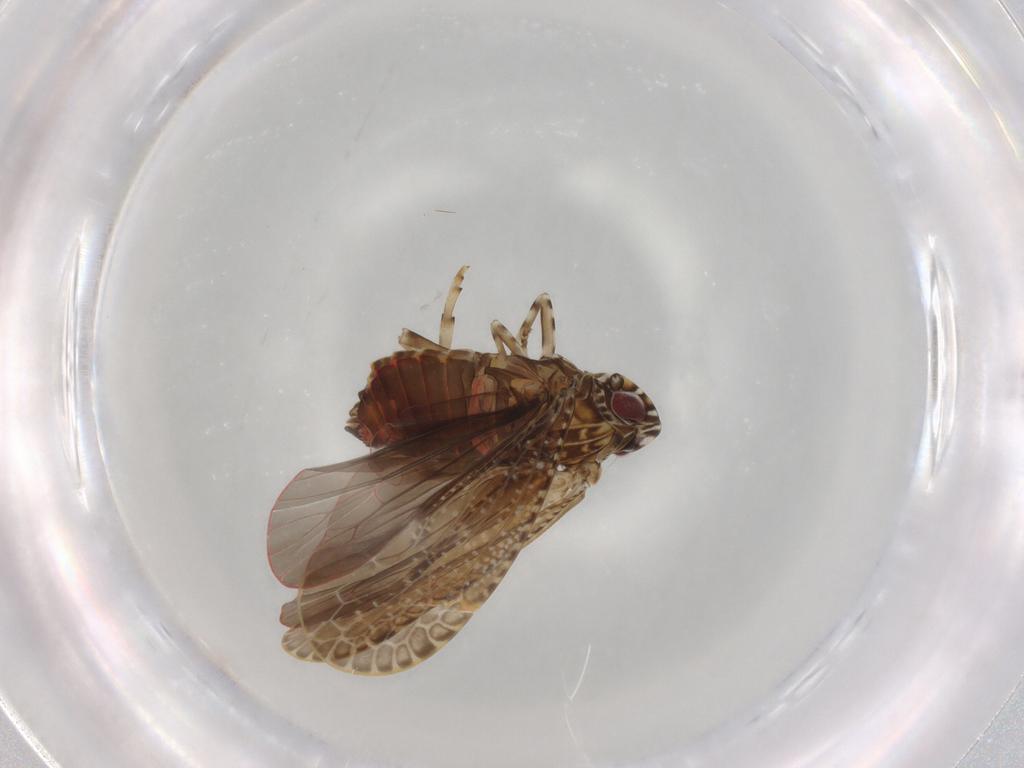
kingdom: Animalia
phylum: Arthropoda
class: Insecta
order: Hemiptera
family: Achilidae
